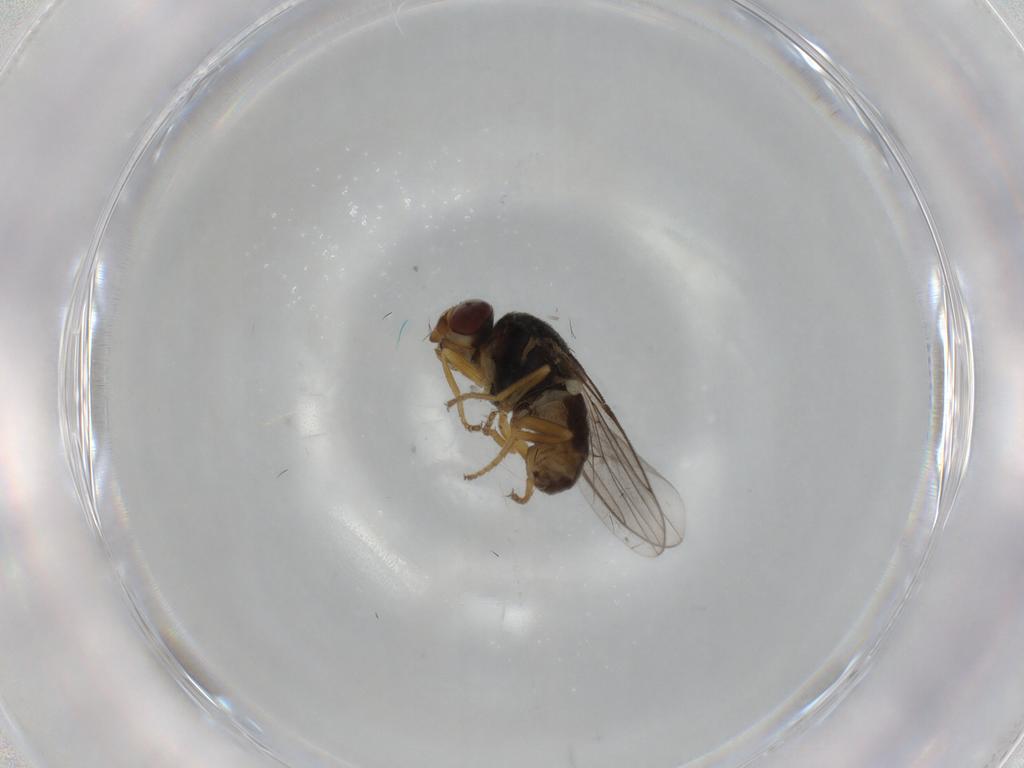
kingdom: Animalia
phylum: Arthropoda
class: Insecta
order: Diptera
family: Chloropidae
